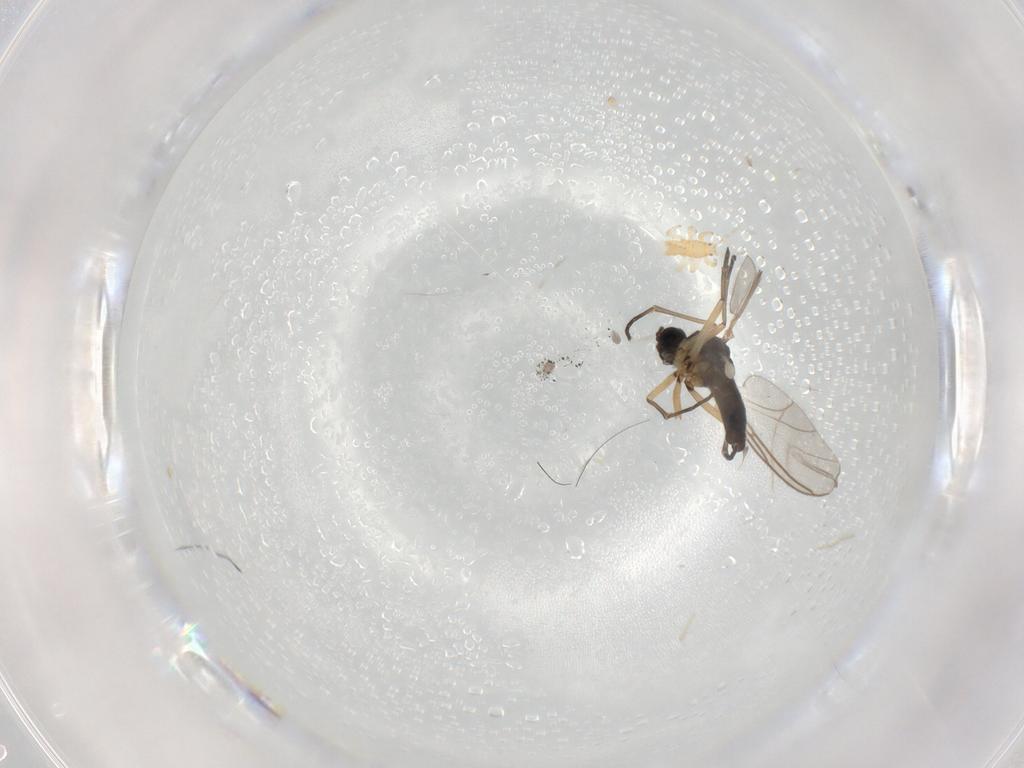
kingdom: Animalia
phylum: Arthropoda
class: Insecta
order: Diptera
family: Sciaridae
